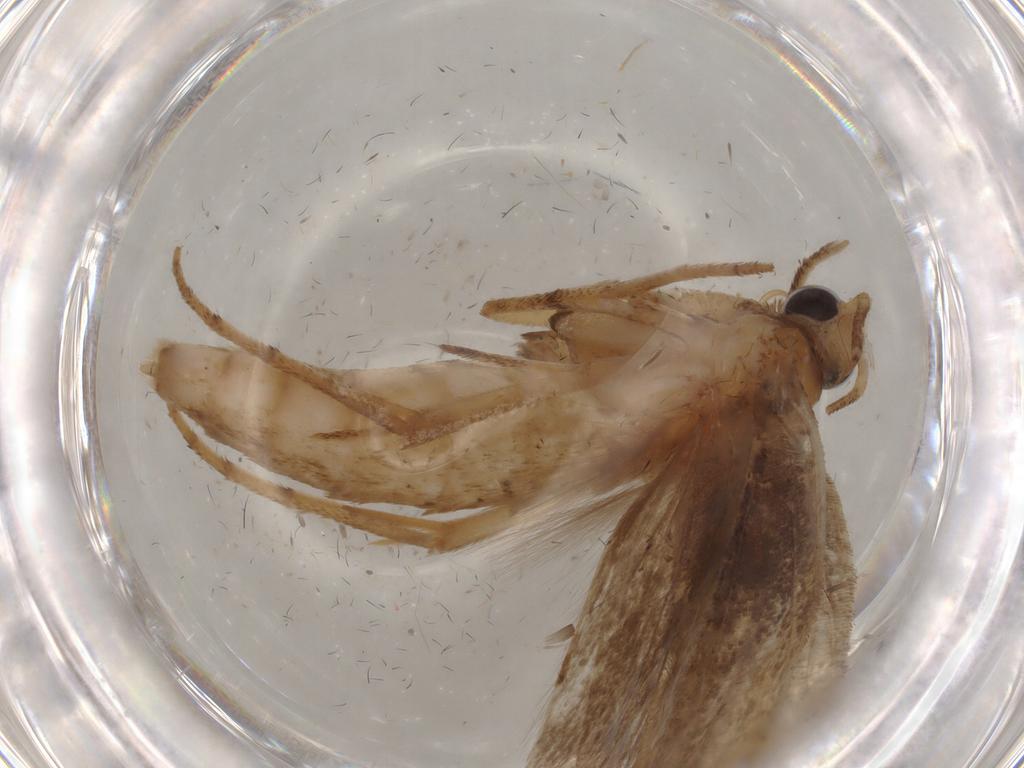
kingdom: Animalia
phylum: Arthropoda
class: Insecta
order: Lepidoptera
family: Yponomeutidae
